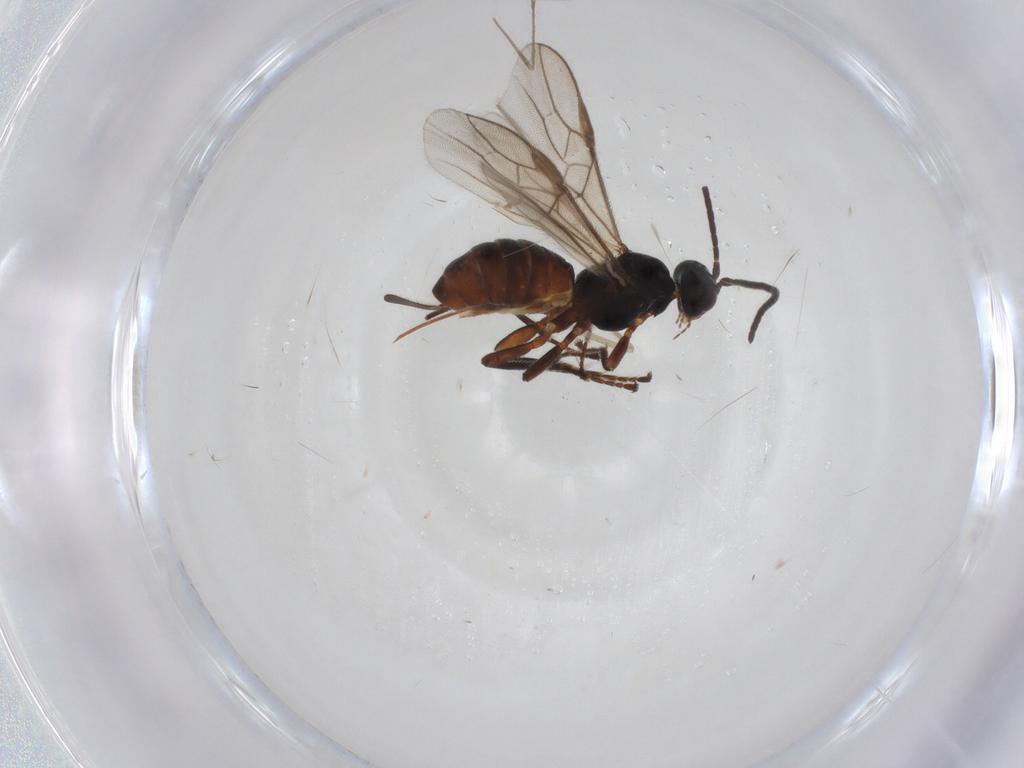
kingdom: Animalia
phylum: Arthropoda
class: Insecta
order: Hymenoptera
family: Braconidae
